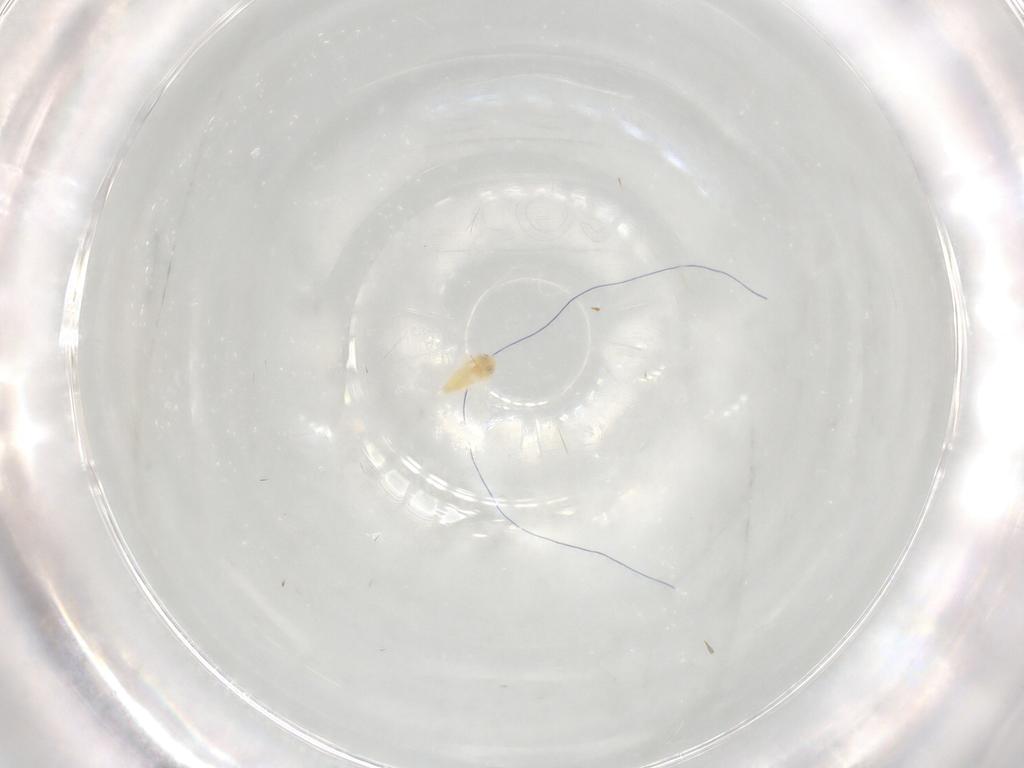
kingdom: Animalia
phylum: Arthropoda
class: Insecta
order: Hemiptera
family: Aleyrodidae
